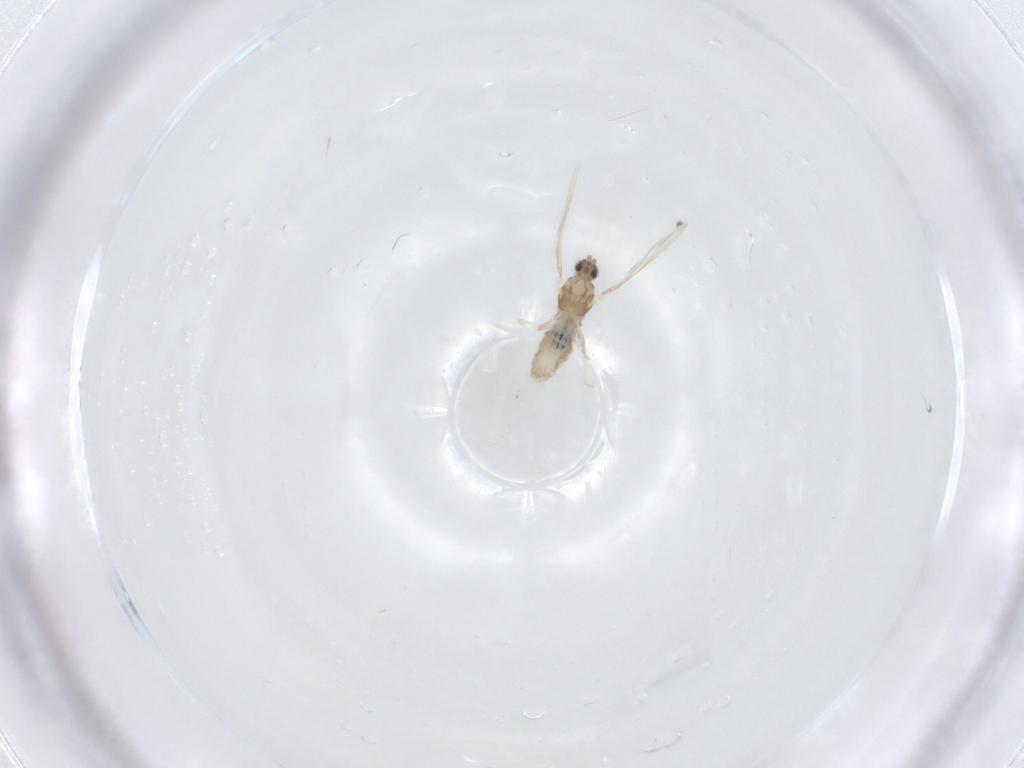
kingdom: Animalia
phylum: Arthropoda
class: Insecta
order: Diptera
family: Cecidomyiidae
